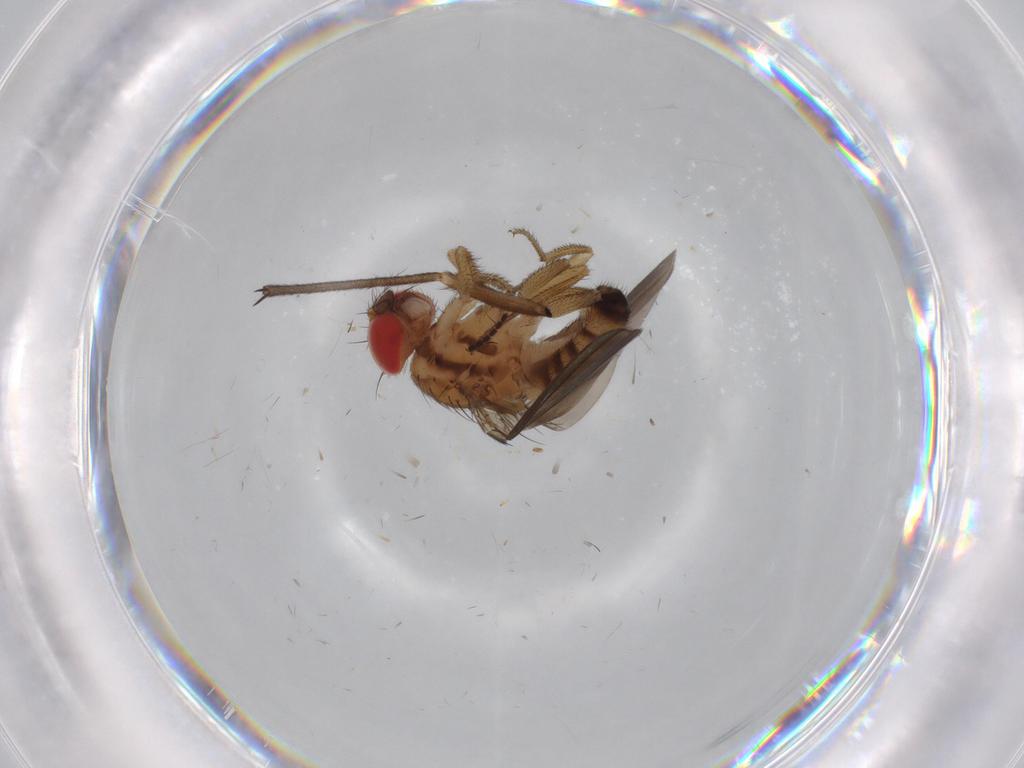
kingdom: Animalia
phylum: Arthropoda
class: Insecta
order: Diptera
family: Drosophilidae
